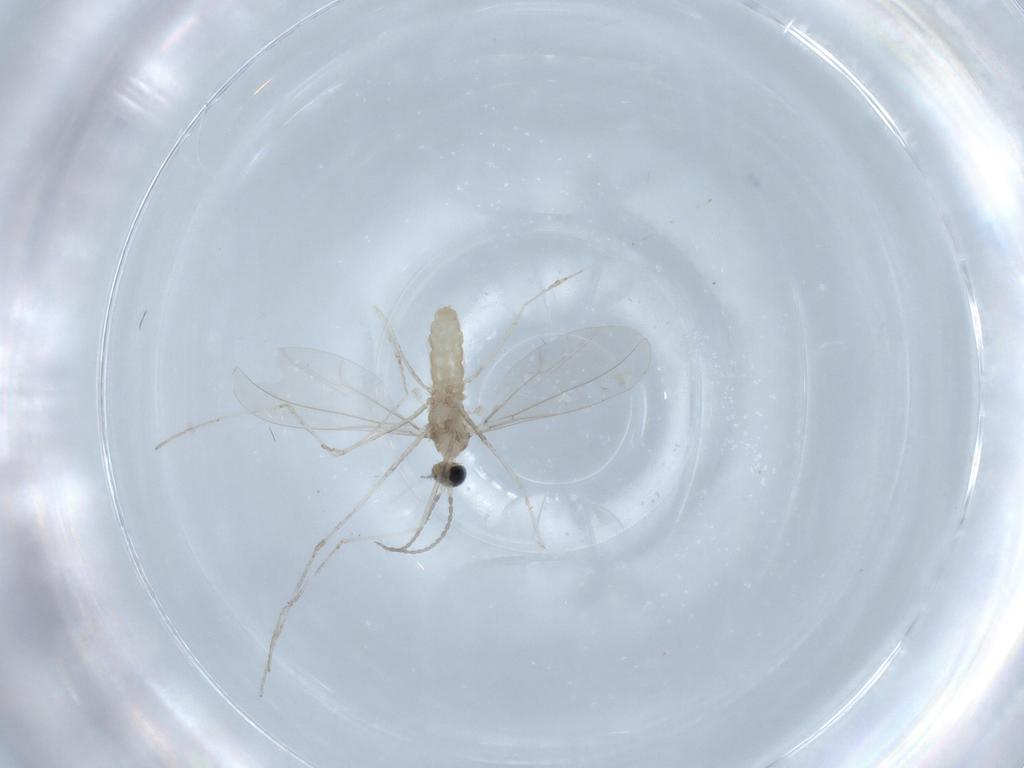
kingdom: Animalia
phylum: Arthropoda
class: Insecta
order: Diptera
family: Cecidomyiidae
